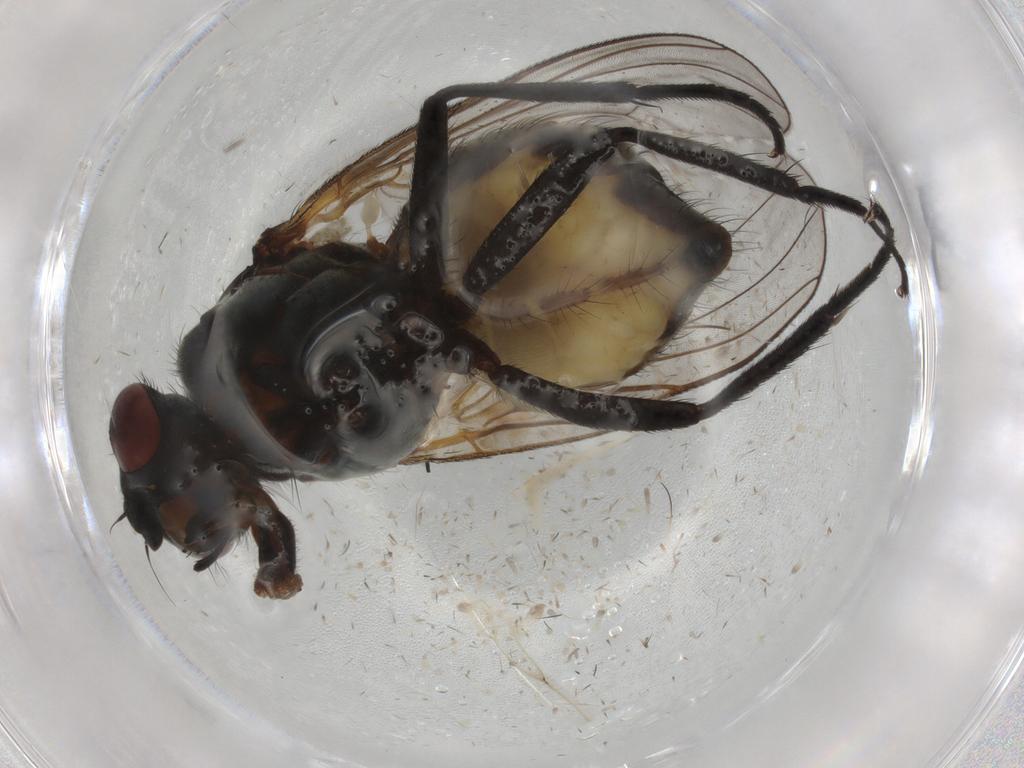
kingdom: Animalia
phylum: Arthropoda
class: Insecta
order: Diptera
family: Anthomyiidae
